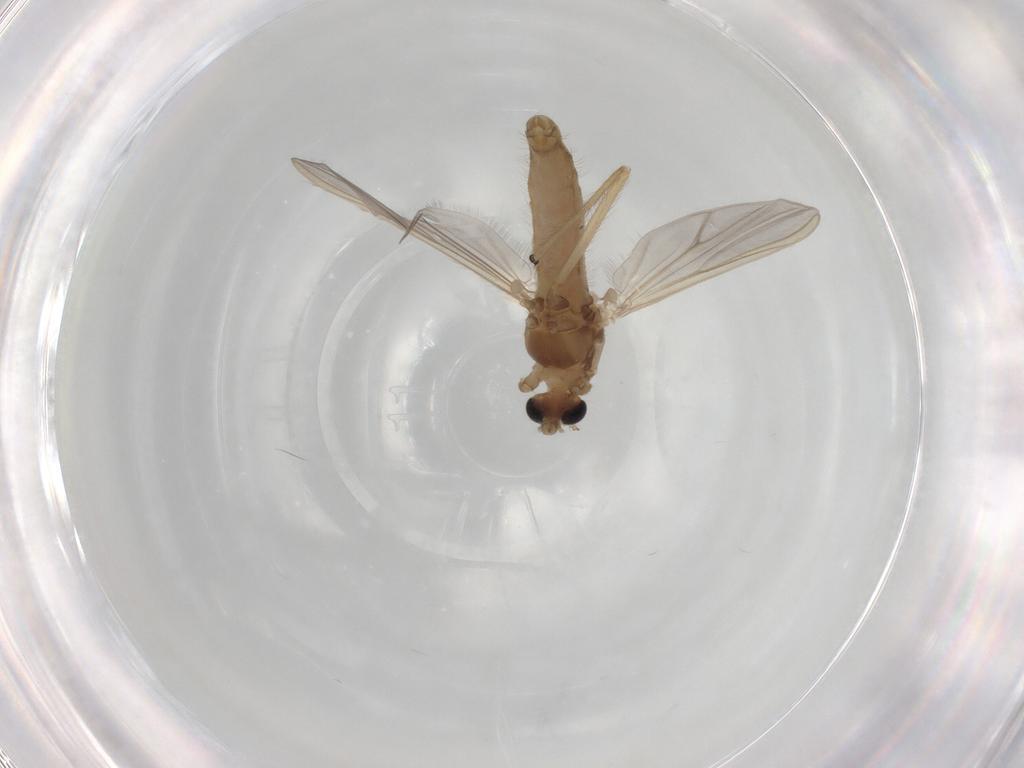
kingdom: Animalia
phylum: Arthropoda
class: Insecta
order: Diptera
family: Chironomidae
